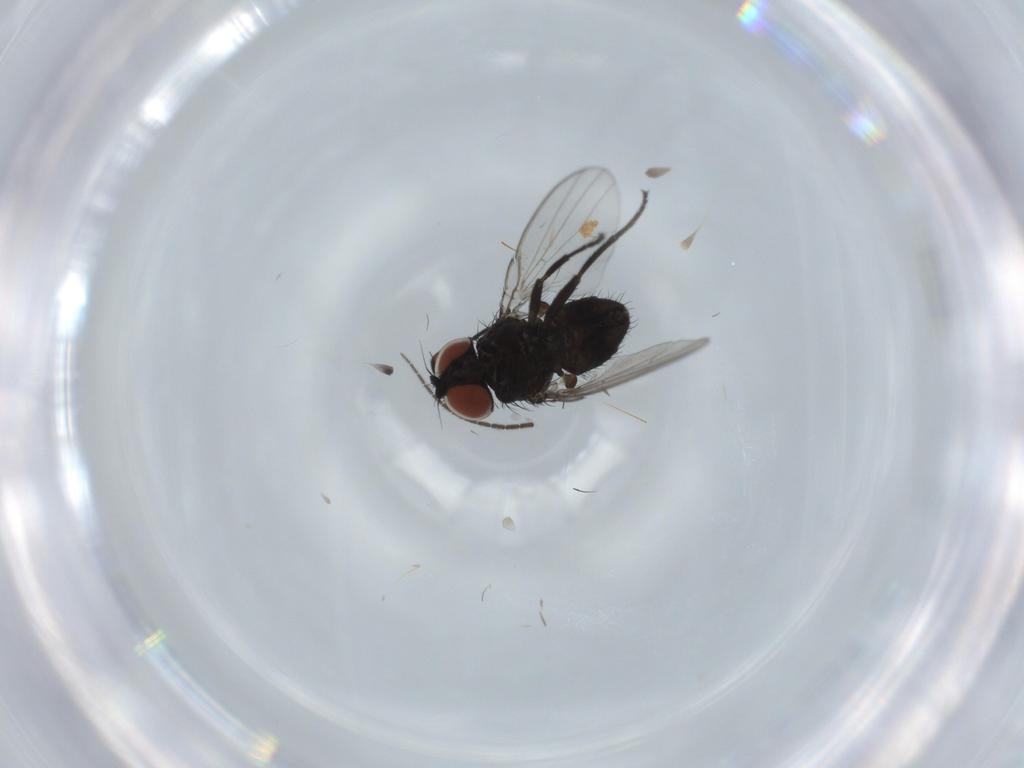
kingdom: Animalia
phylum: Arthropoda
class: Insecta
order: Diptera
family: Milichiidae
